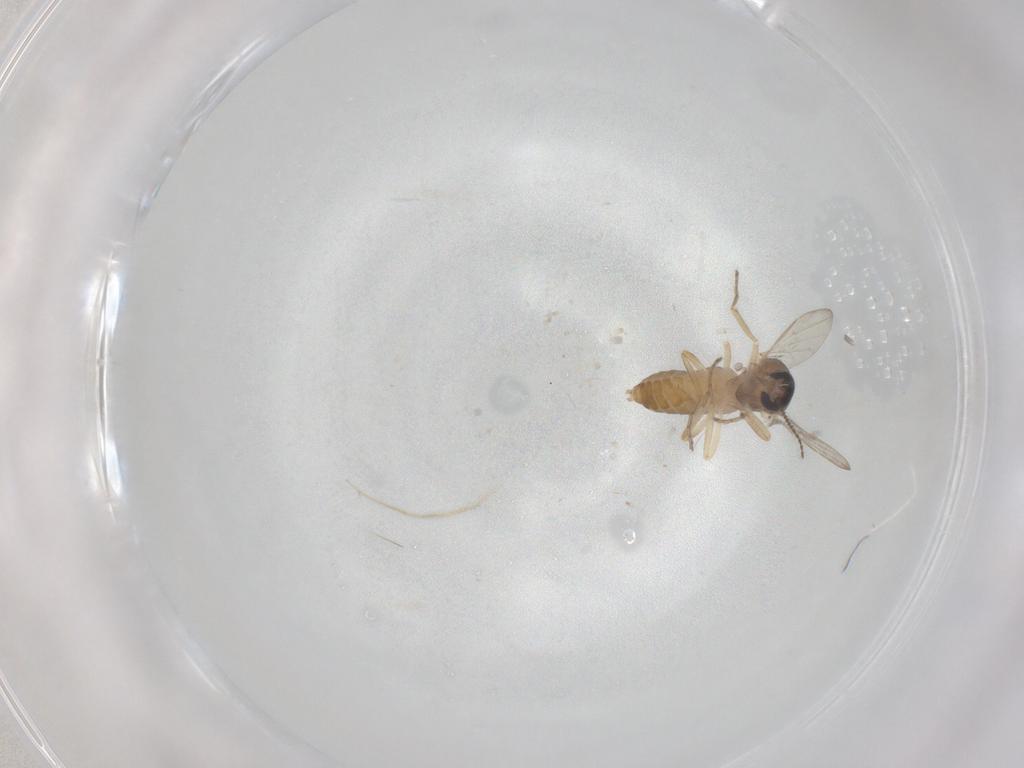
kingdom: Animalia
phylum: Arthropoda
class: Insecta
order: Diptera
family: Ceratopogonidae
